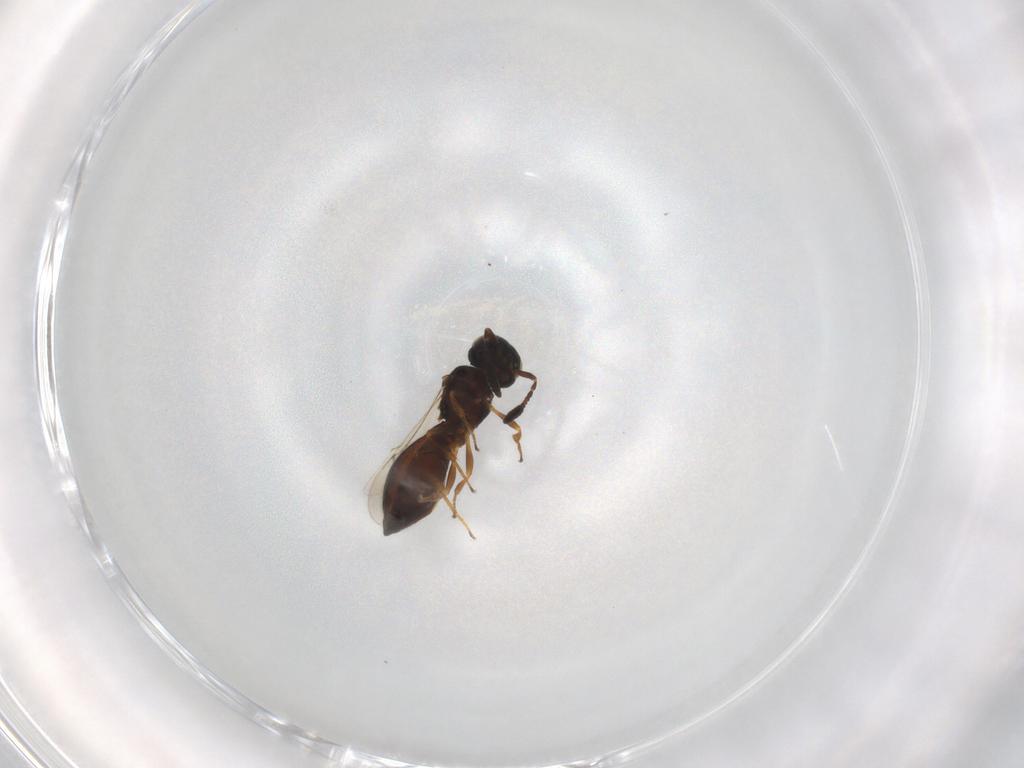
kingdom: Animalia
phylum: Arthropoda
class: Insecta
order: Hymenoptera
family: Scelionidae
